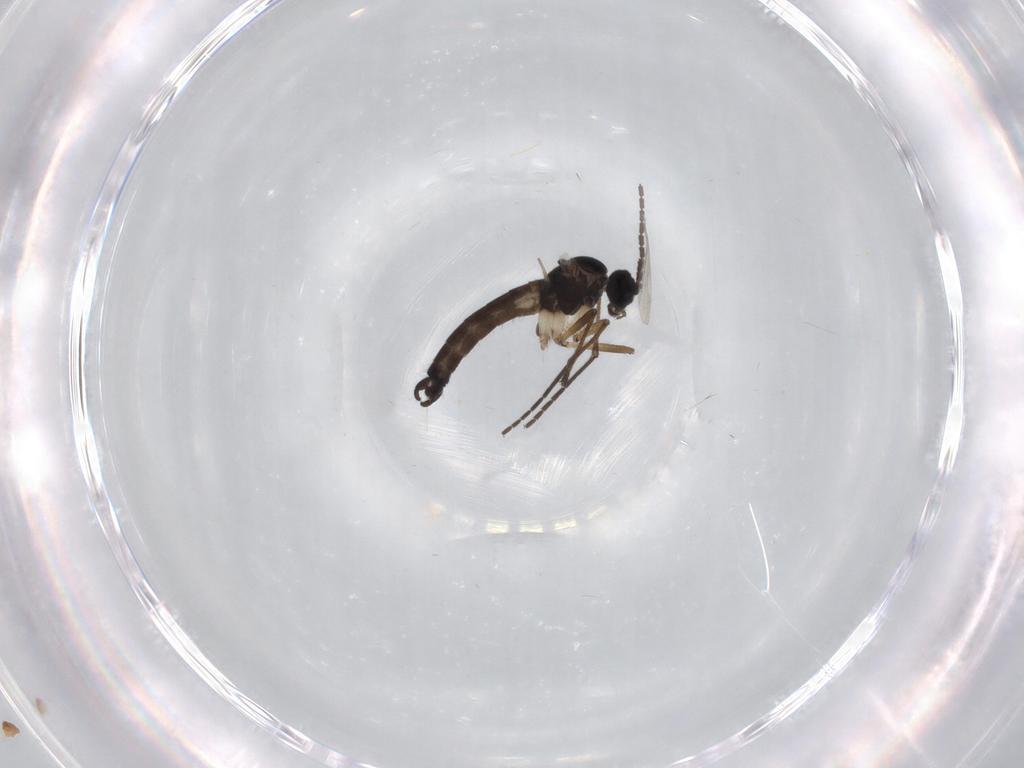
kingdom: Animalia
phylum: Arthropoda
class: Insecta
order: Diptera
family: Sciaridae
